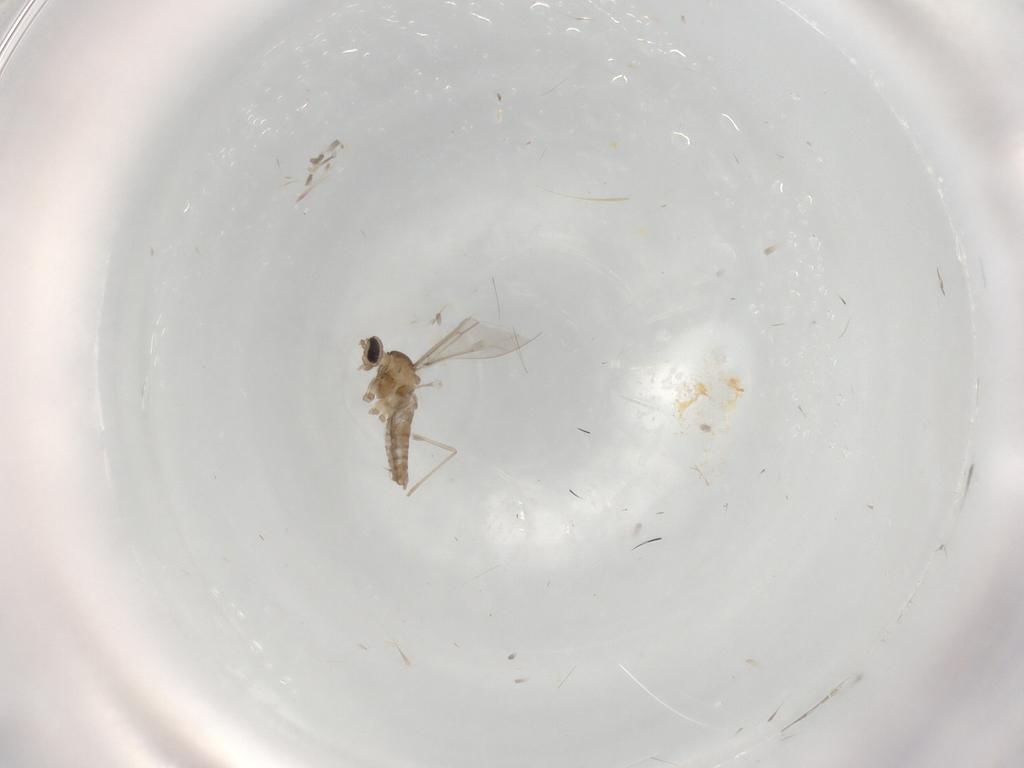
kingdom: Animalia
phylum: Arthropoda
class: Insecta
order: Diptera
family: Cecidomyiidae
